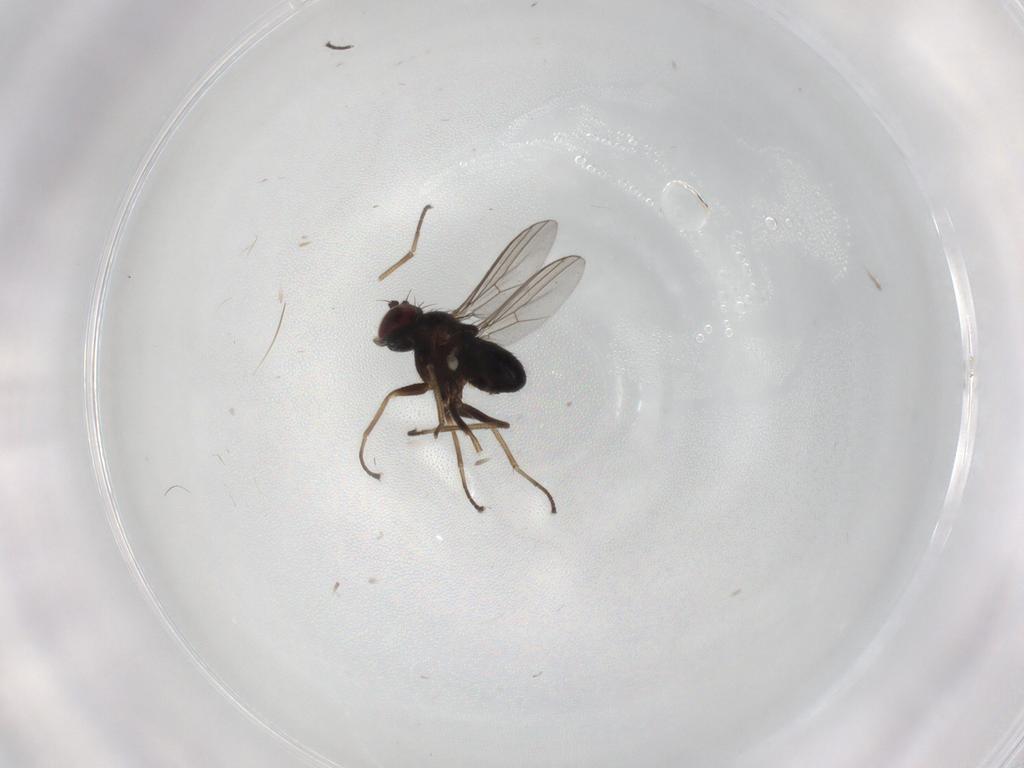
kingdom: Animalia
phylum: Arthropoda
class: Insecta
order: Diptera
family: Dolichopodidae
